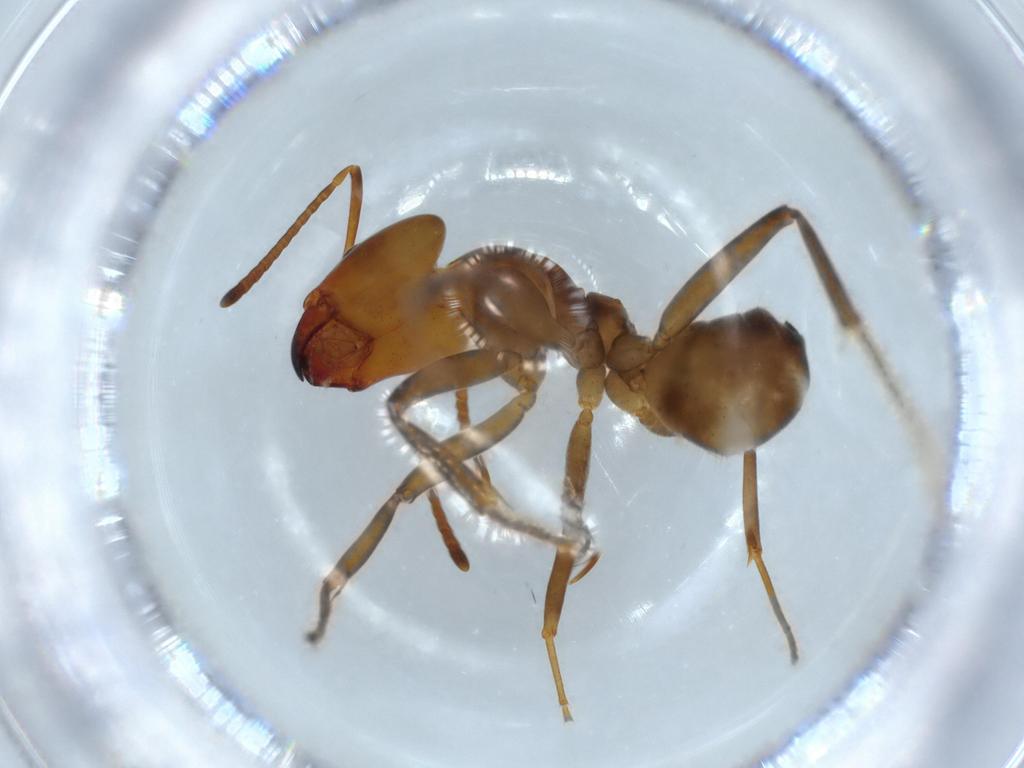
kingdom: Animalia
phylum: Arthropoda
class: Insecta
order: Hymenoptera
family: Formicidae
